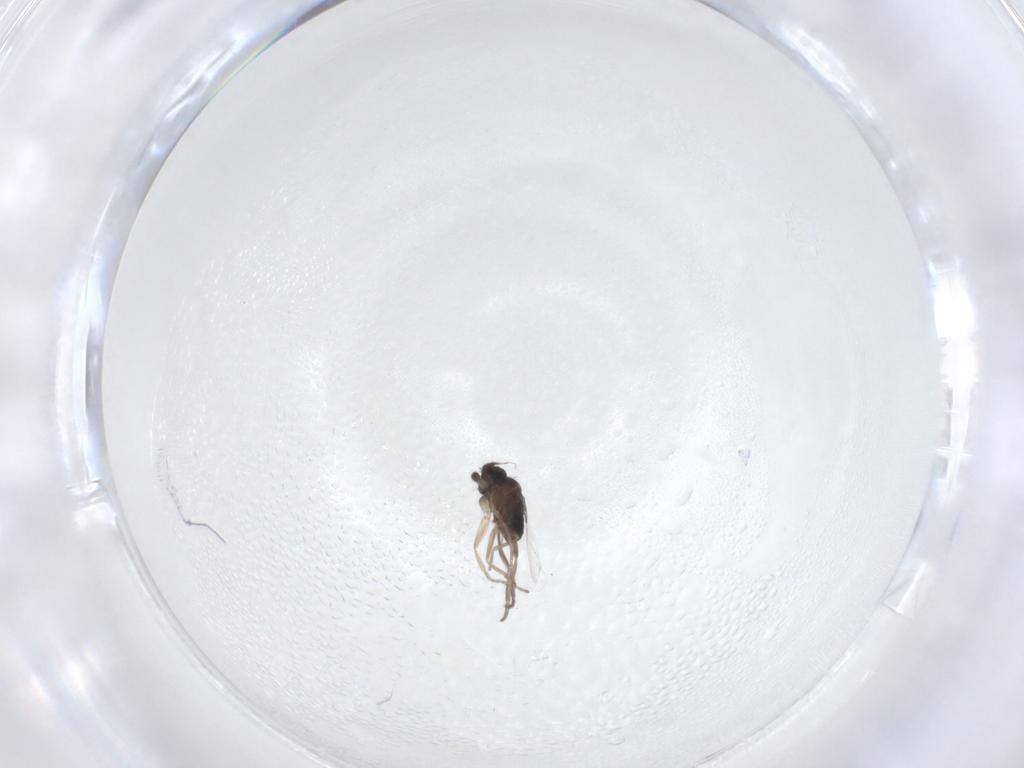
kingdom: Animalia
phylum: Arthropoda
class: Insecta
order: Diptera
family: Phoridae
